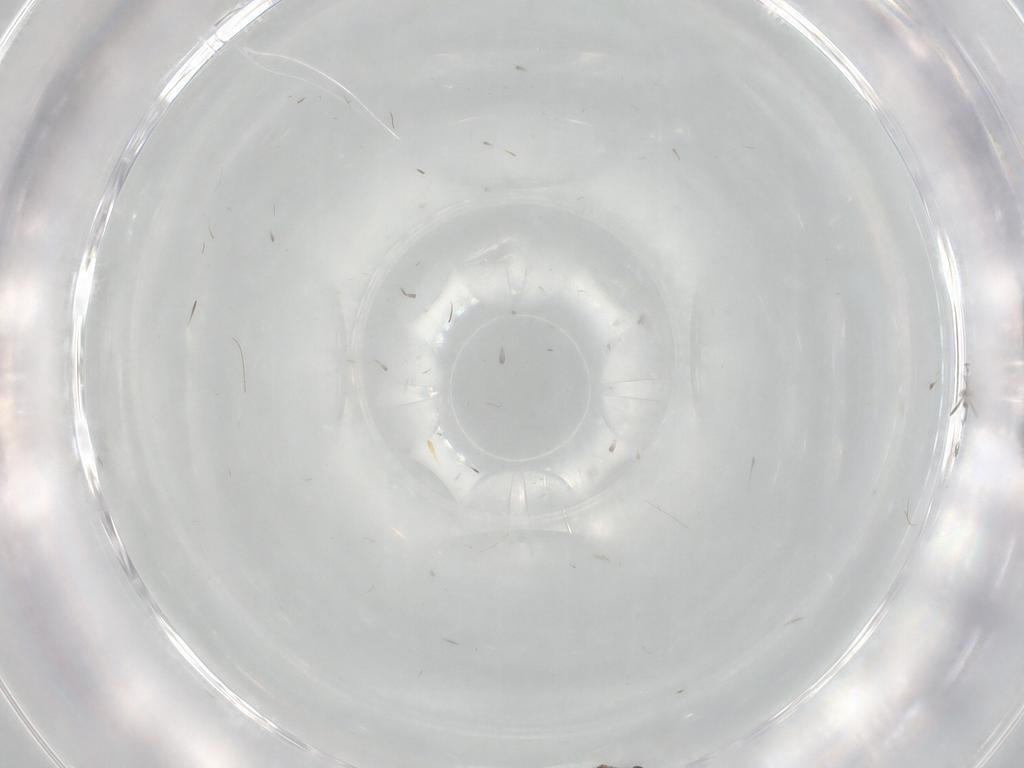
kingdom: Animalia
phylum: Arthropoda
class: Insecta
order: Diptera
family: Cecidomyiidae
